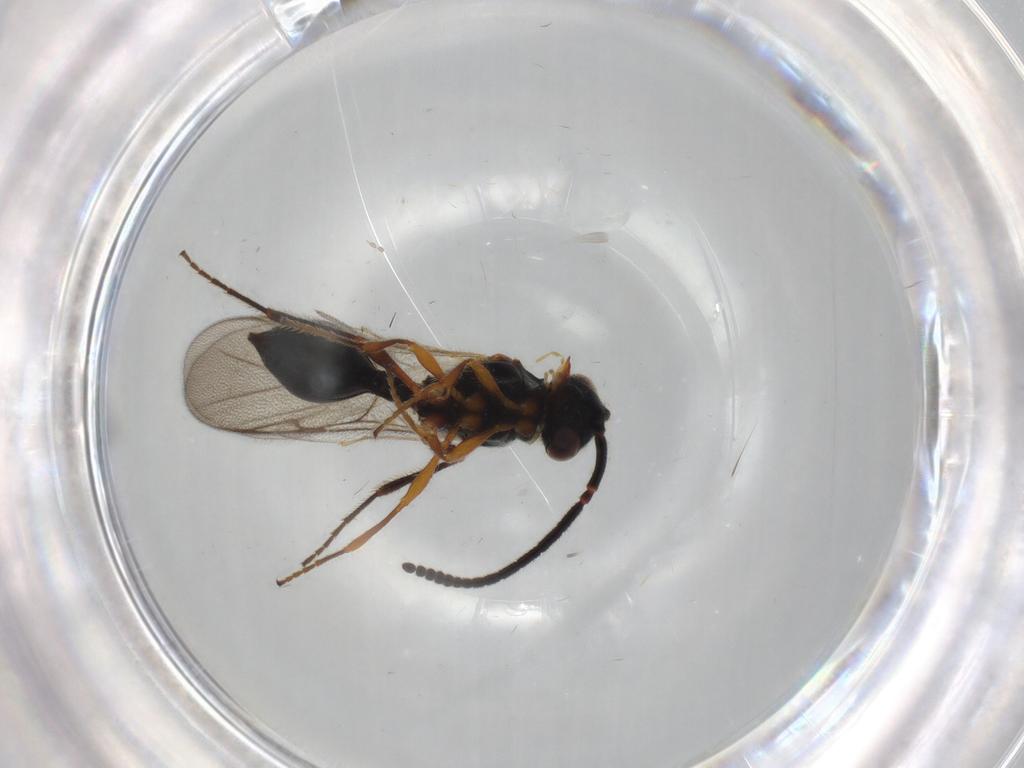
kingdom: Animalia
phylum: Arthropoda
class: Insecta
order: Hymenoptera
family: Diapriidae
